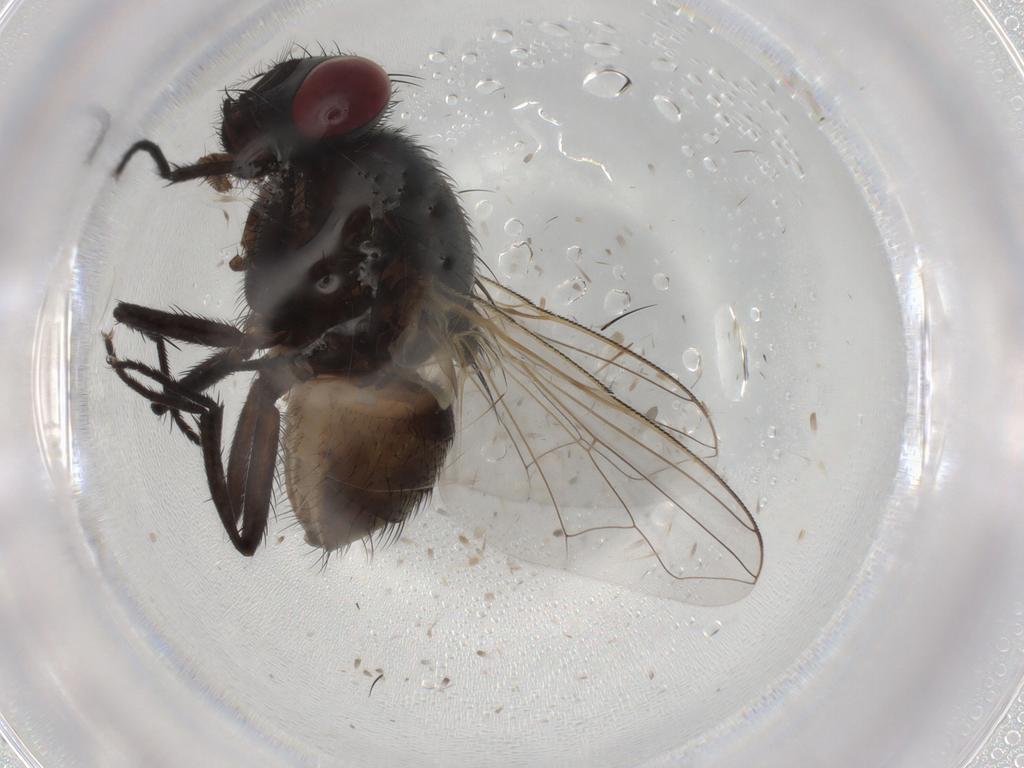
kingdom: Animalia
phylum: Arthropoda
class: Insecta
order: Diptera
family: Muscidae
